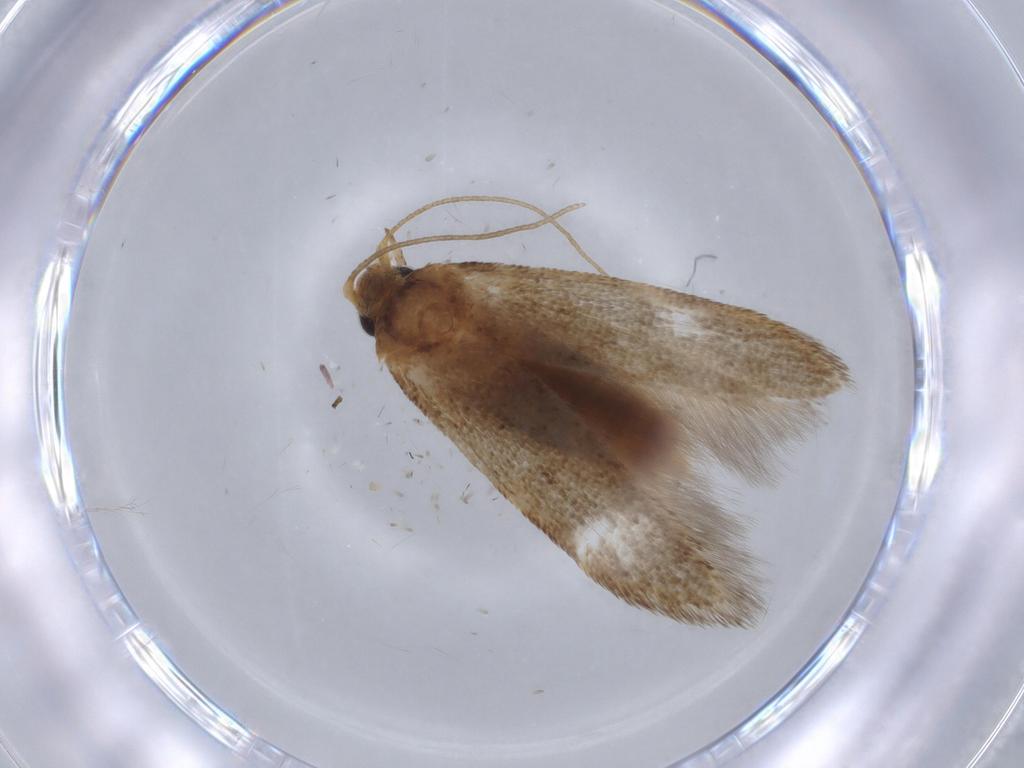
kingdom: Animalia
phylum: Arthropoda
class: Insecta
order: Lepidoptera
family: Blastobasidae
